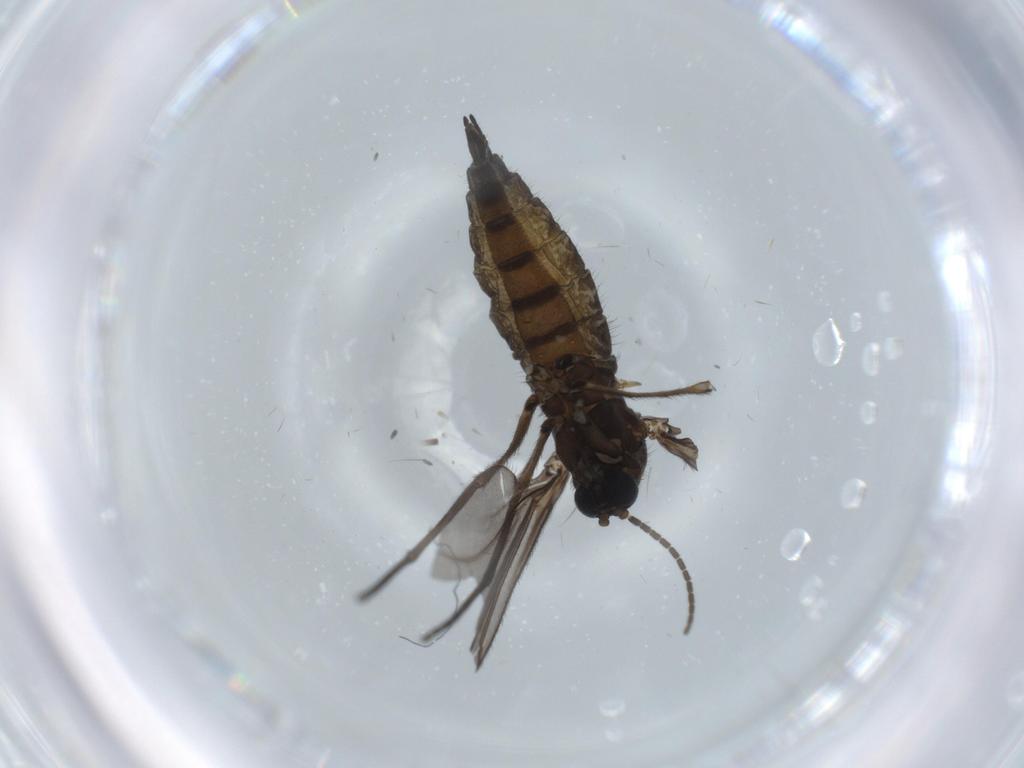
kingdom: Animalia
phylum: Arthropoda
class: Insecta
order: Diptera
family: Sciaridae
